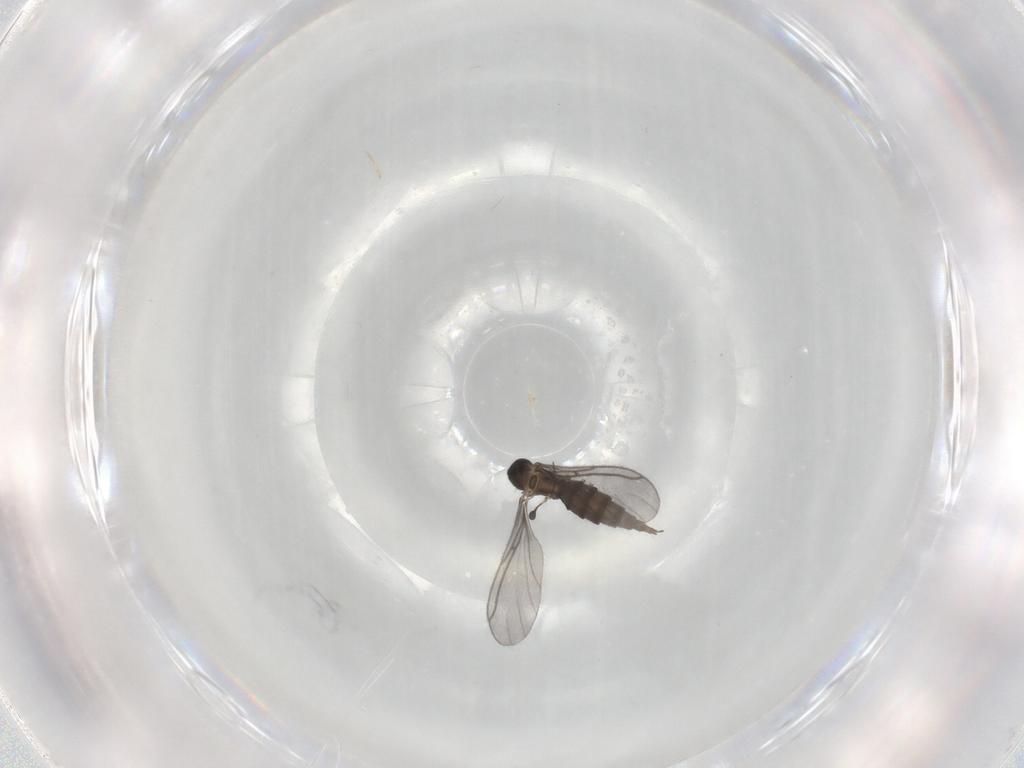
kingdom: Animalia
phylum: Arthropoda
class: Insecta
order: Diptera
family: Sciaridae
